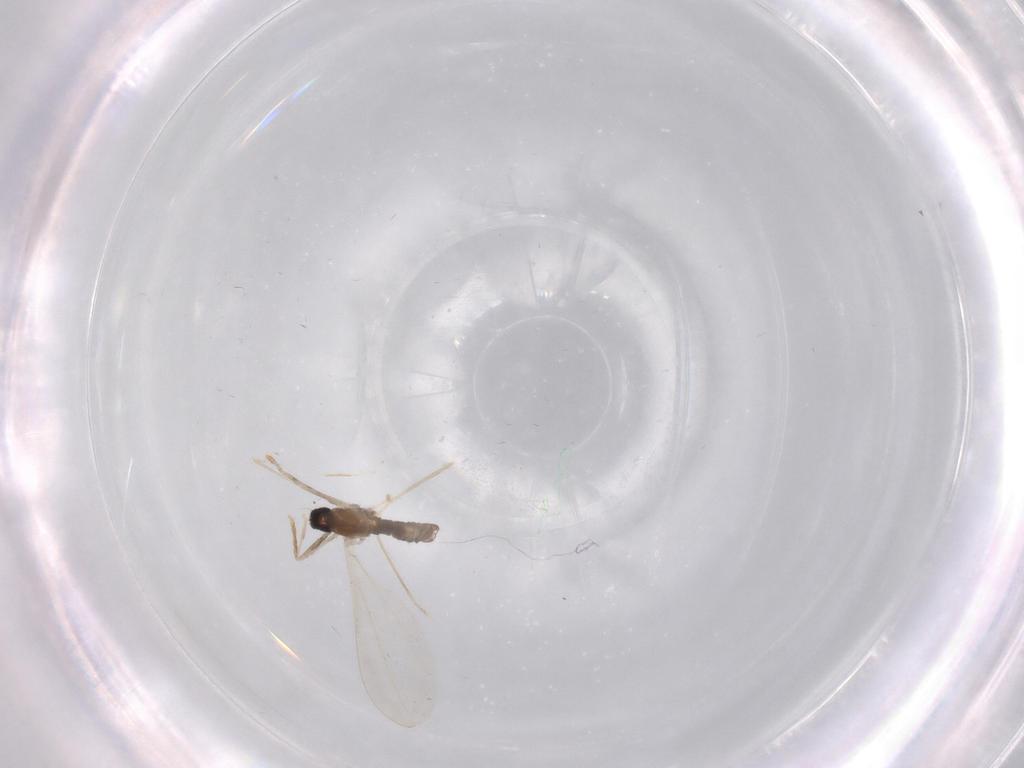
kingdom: Animalia
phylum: Arthropoda
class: Insecta
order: Diptera
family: Cecidomyiidae
